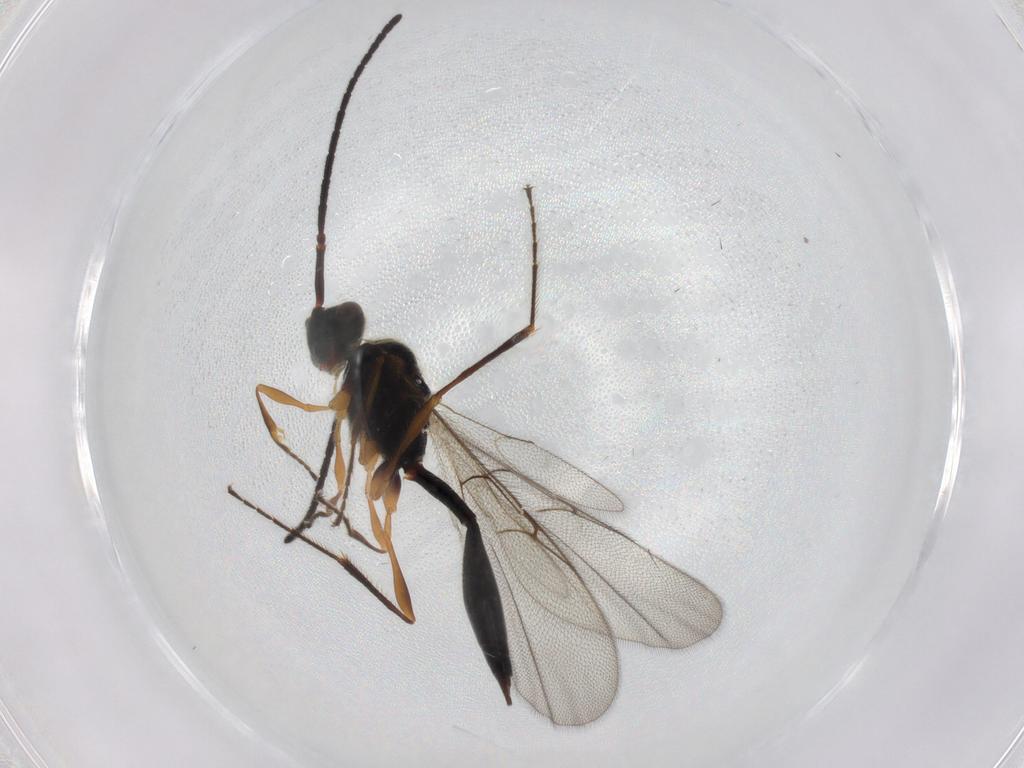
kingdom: Animalia
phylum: Arthropoda
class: Insecta
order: Hymenoptera
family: Diapriidae
